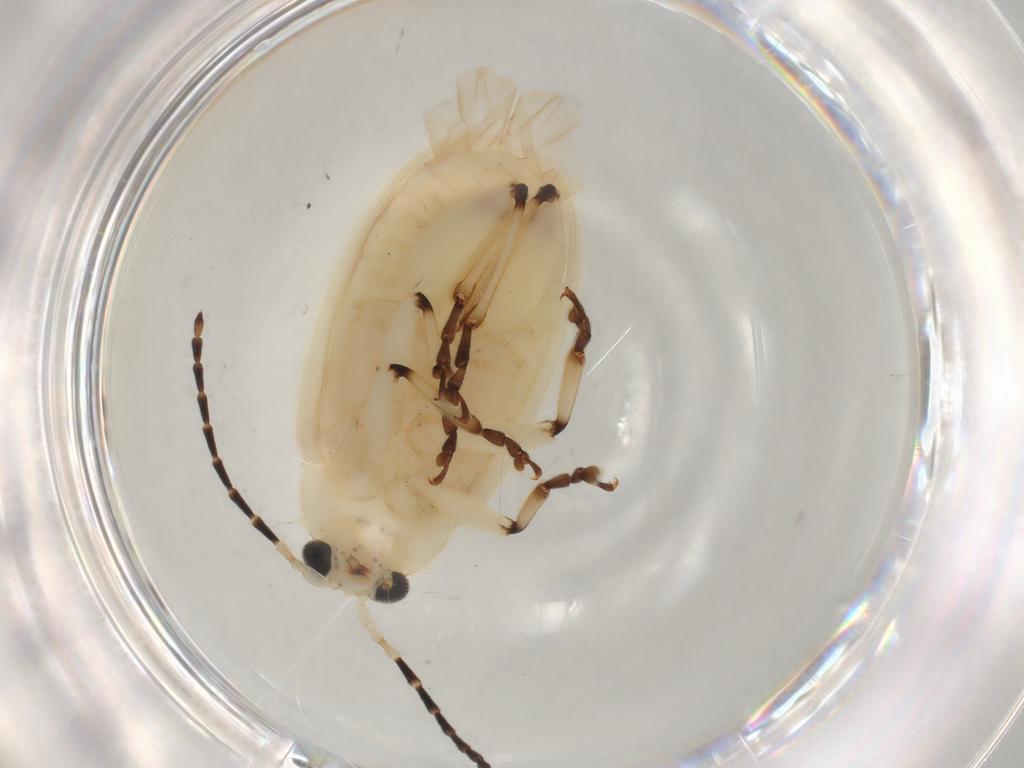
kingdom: Animalia
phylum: Arthropoda
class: Insecta
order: Coleoptera
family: Chrysomelidae
